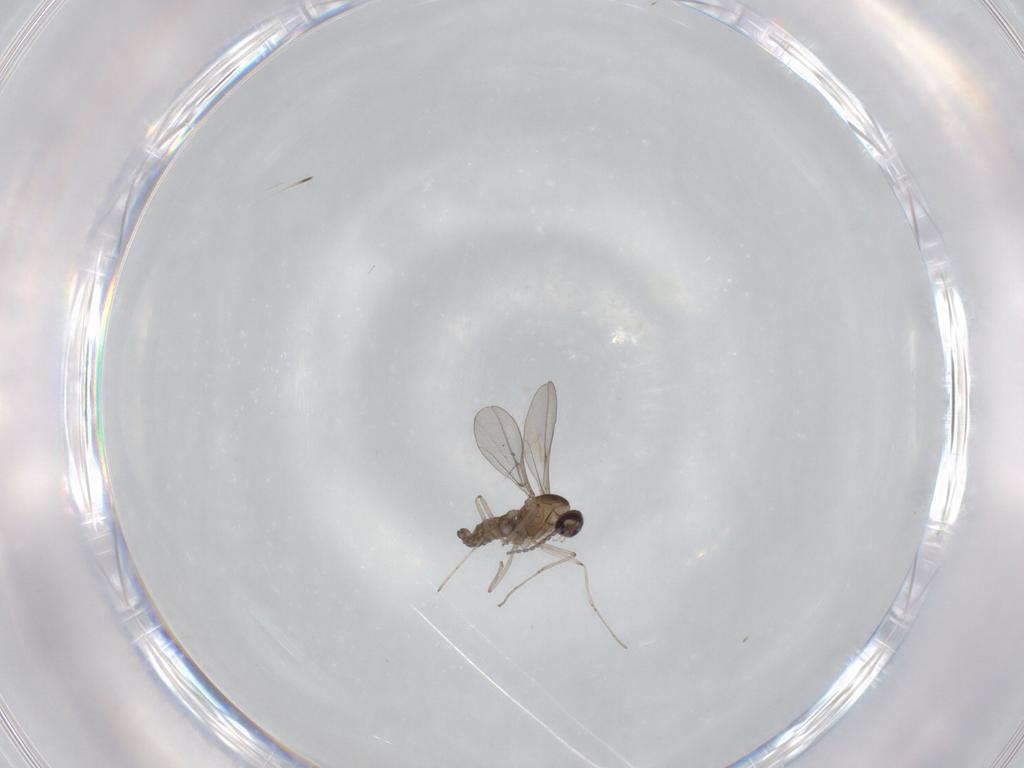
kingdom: Animalia
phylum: Arthropoda
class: Insecta
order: Diptera
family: Cecidomyiidae
